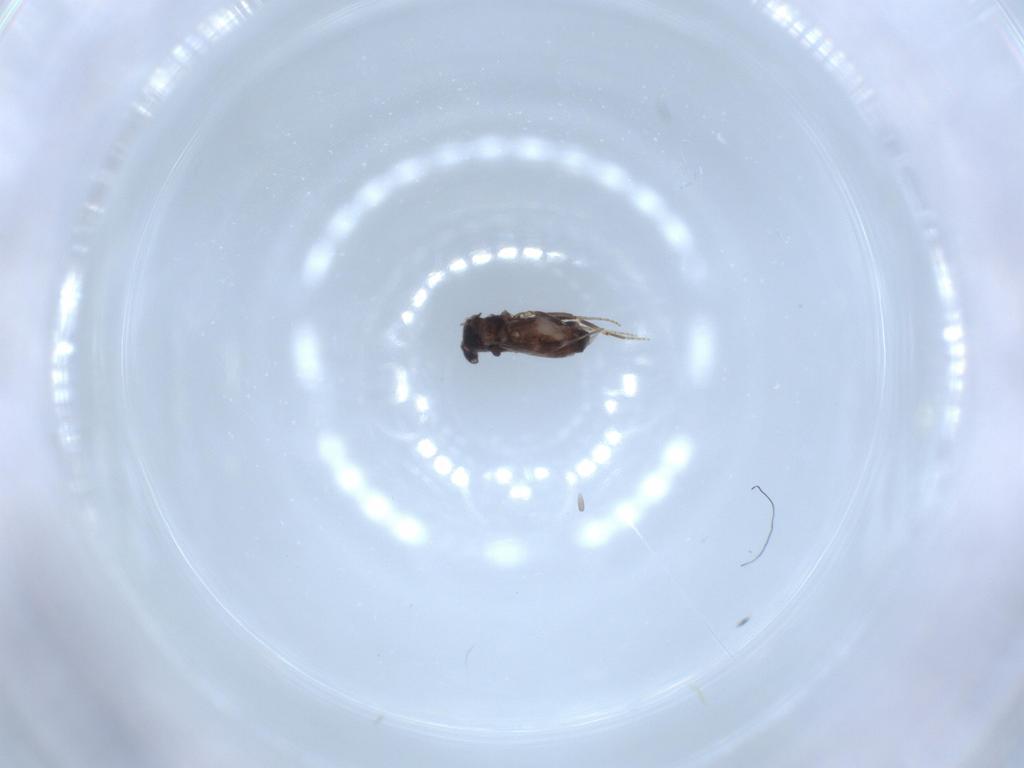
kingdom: Animalia
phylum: Arthropoda
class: Insecta
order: Diptera
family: Ceratopogonidae
